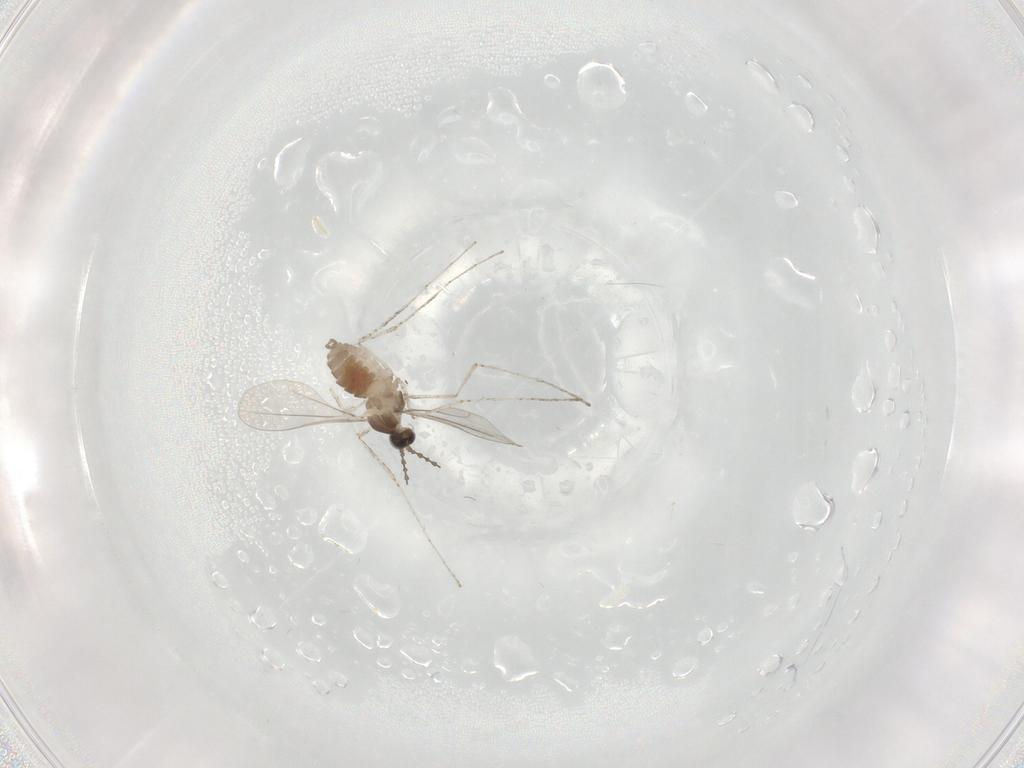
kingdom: Animalia
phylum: Arthropoda
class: Insecta
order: Diptera
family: Cecidomyiidae
